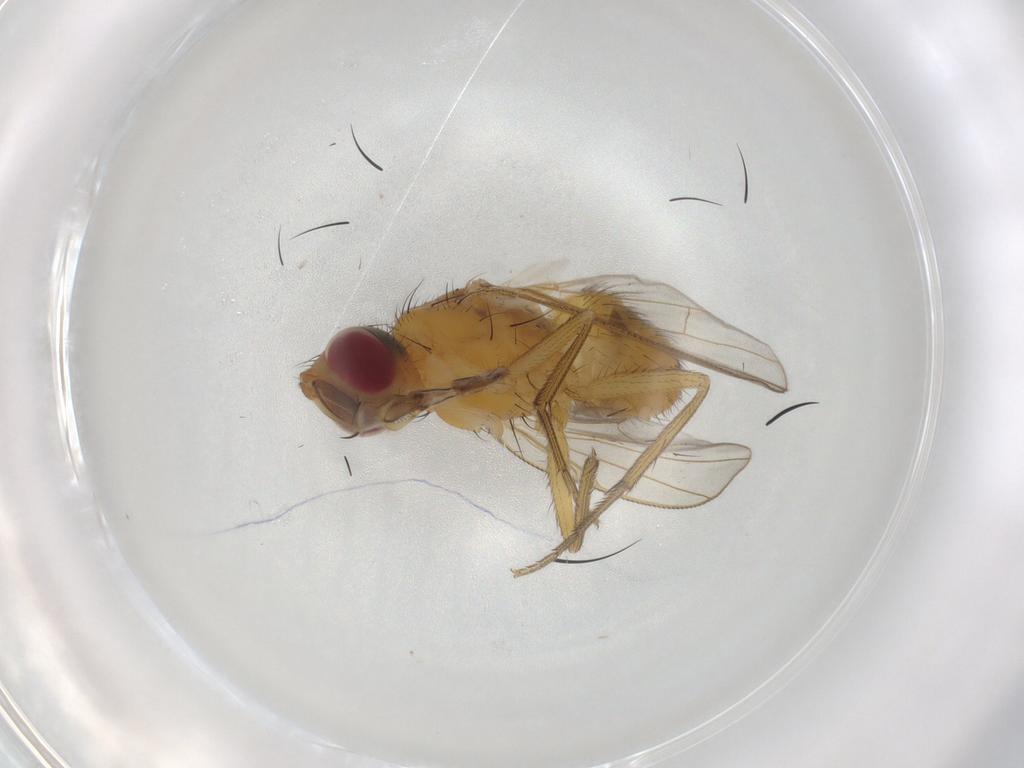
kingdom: Animalia
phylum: Arthropoda
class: Insecta
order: Diptera
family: Muscidae
